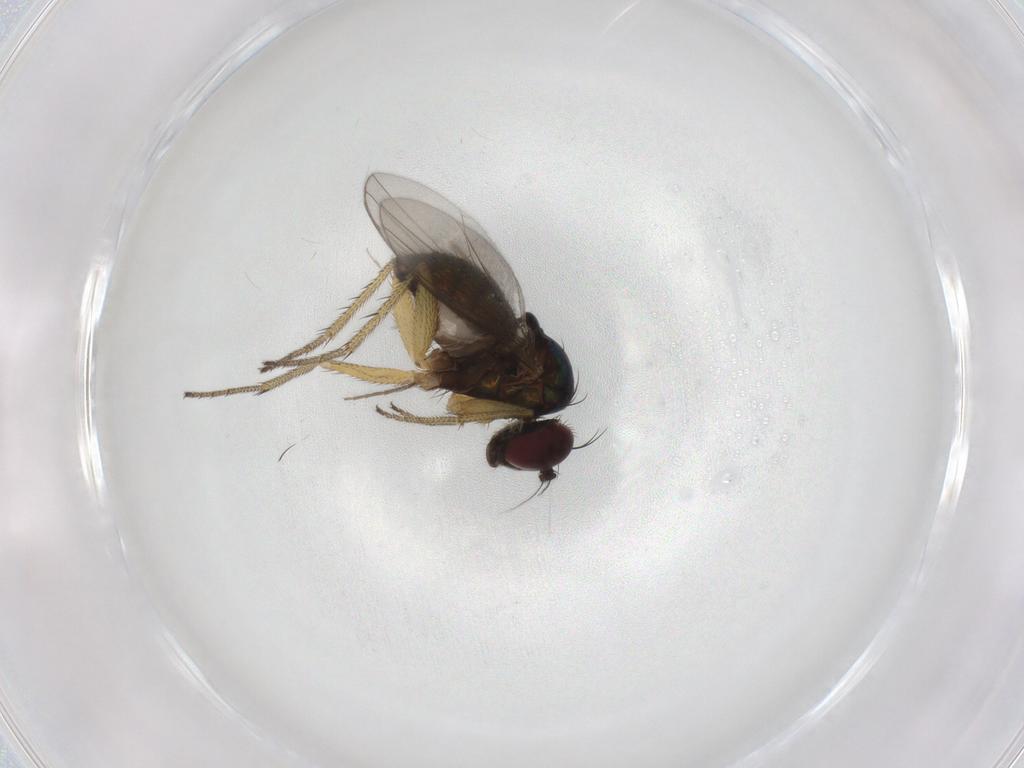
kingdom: Animalia
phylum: Arthropoda
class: Insecta
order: Diptera
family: Dolichopodidae
